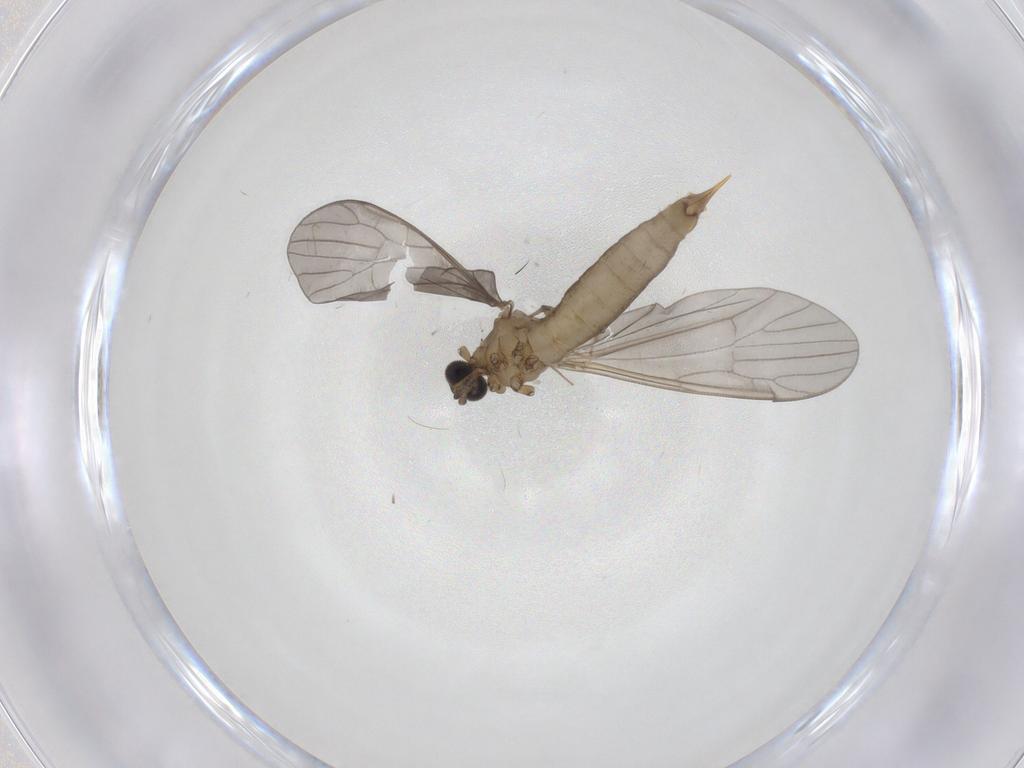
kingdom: Animalia
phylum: Arthropoda
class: Insecta
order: Diptera
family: Limoniidae
